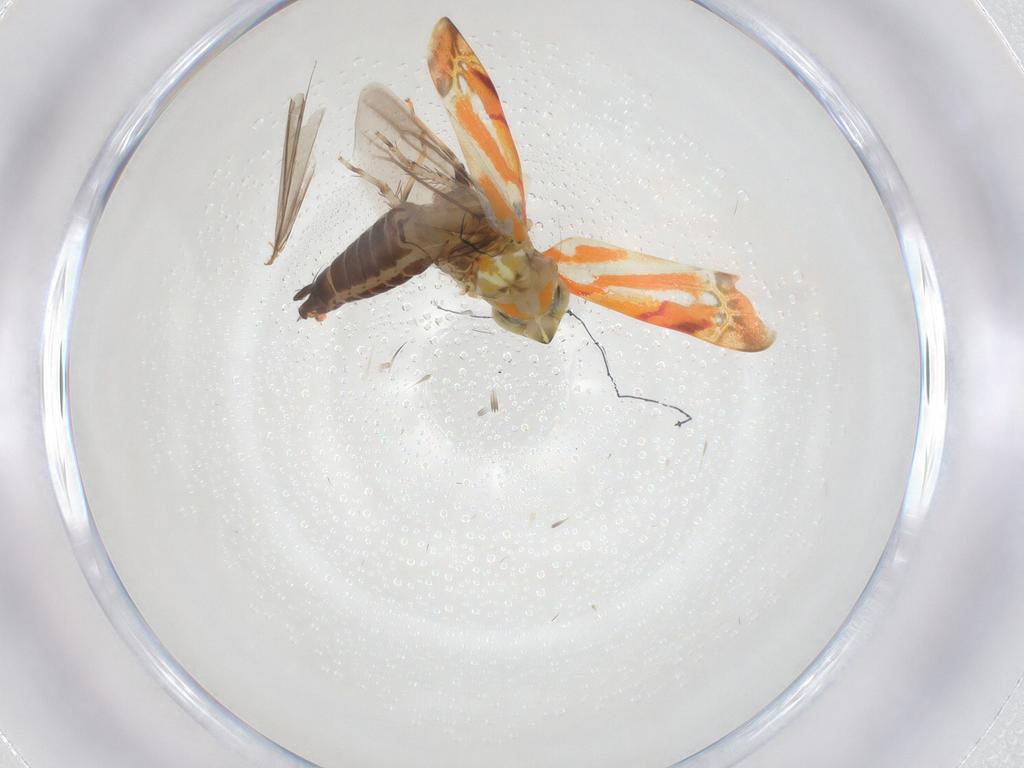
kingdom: Animalia
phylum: Arthropoda
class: Insecta
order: Hemiptera
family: Cicadellidae
